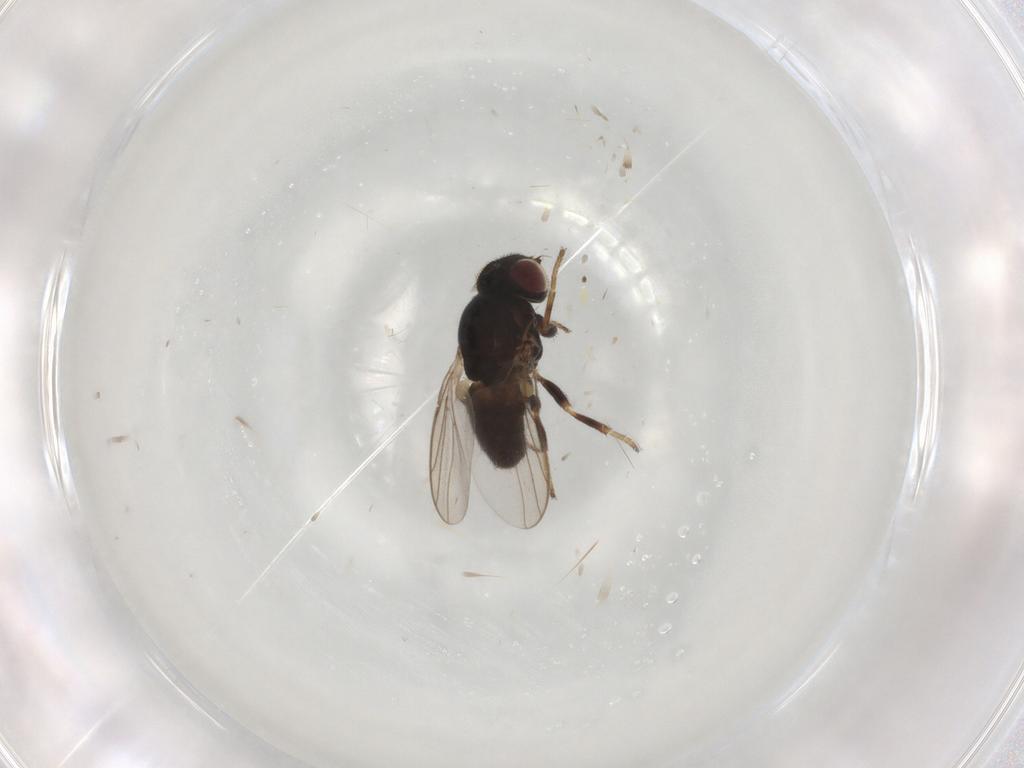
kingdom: Animalia
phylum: Arthropoda
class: Insecta
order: Diptera
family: Chloropidae
